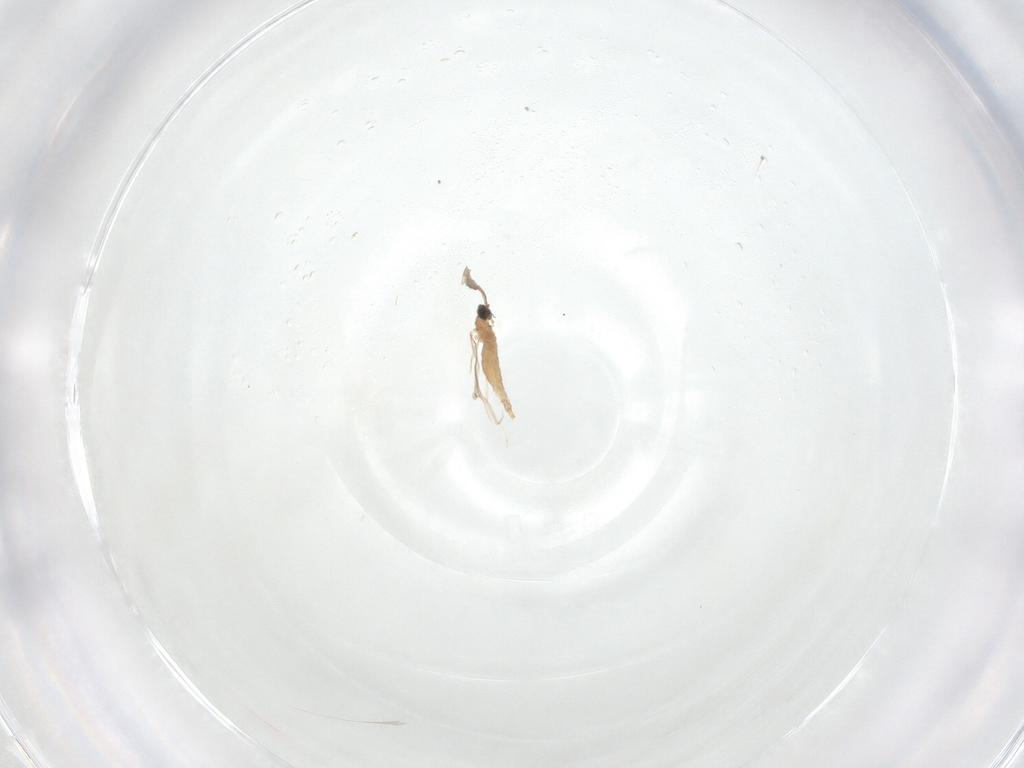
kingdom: Animalia
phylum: Arthropoda
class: Insecta
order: Diptera
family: Cecidomyiidae
